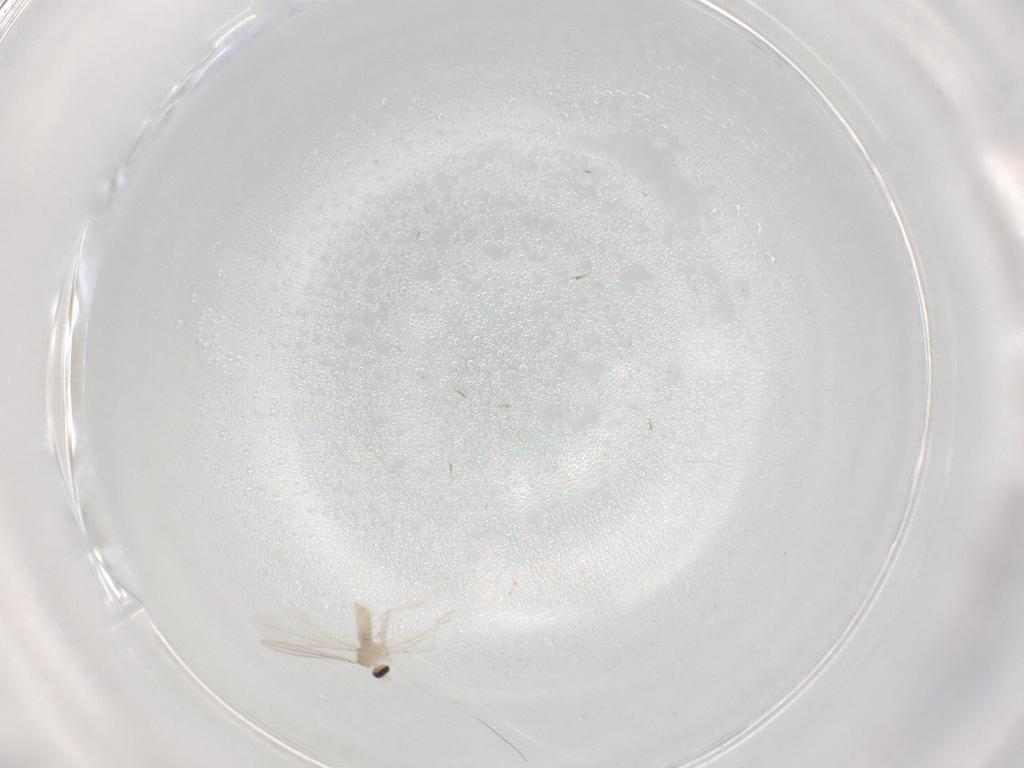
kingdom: Animalia
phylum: Arthropoda
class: Insecta
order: Diptera
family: Cecidomyiidae
